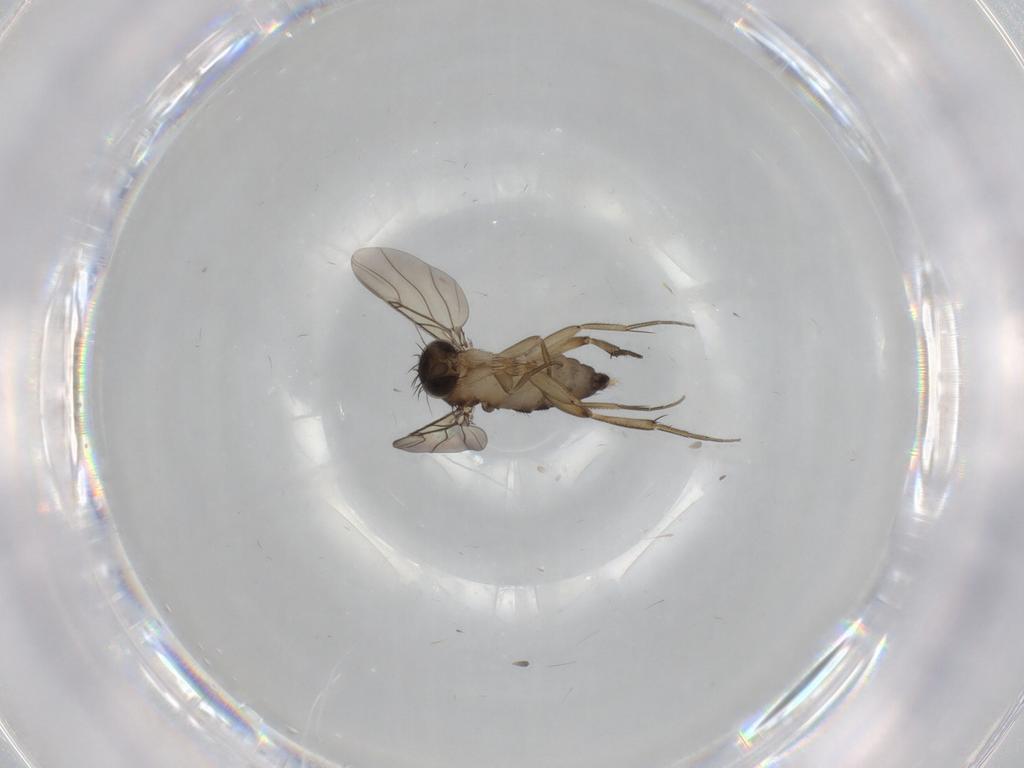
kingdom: Animalia
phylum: Arthropoda
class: Insecta
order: Diptera
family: Ceratopogonidae
